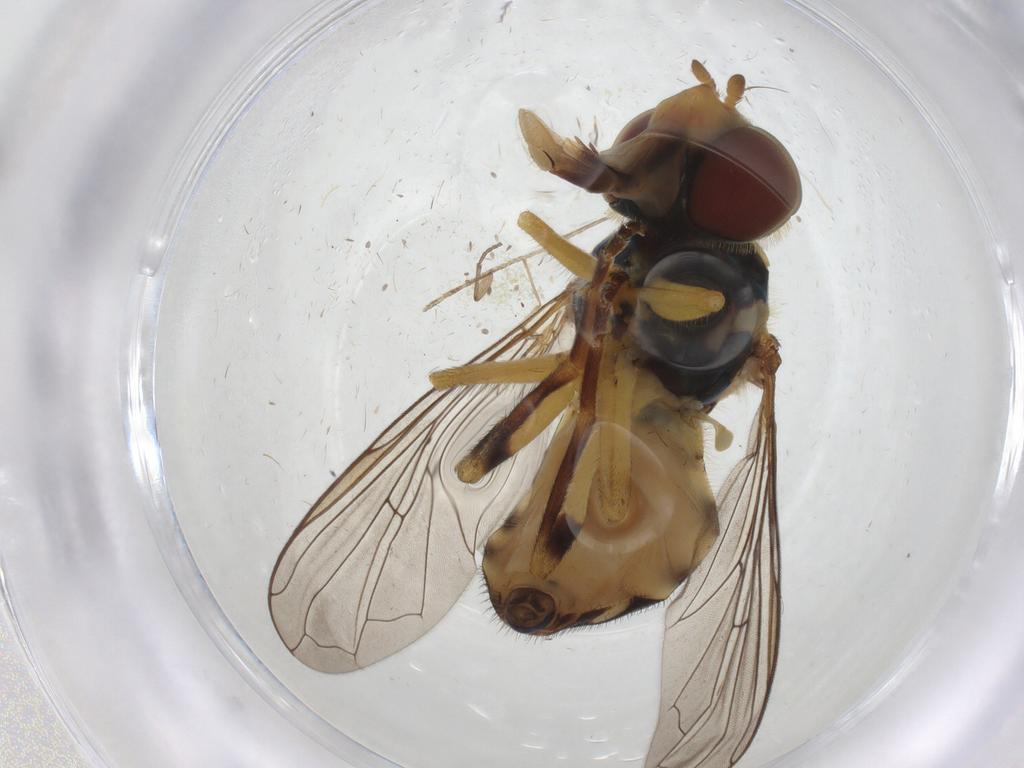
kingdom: Animalia
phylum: Arthropoda
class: Insecta
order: Diptera
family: Syrphidae
